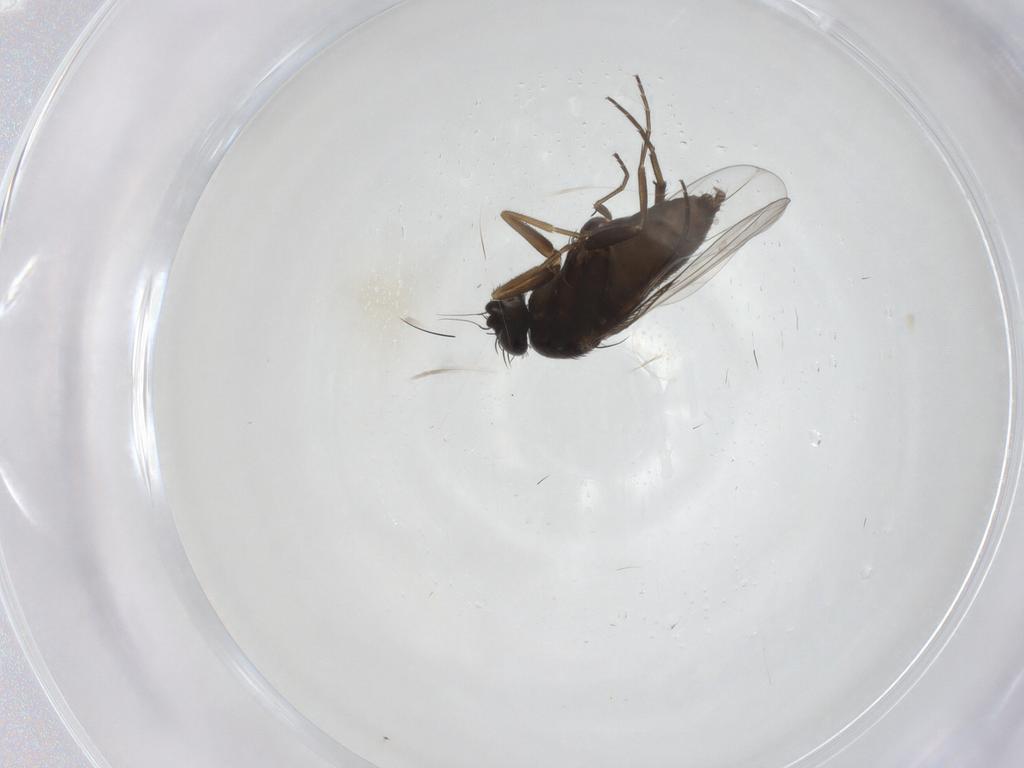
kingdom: Animalia
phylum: Arthropoda
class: Insecta
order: Diptera
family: Phoridae
